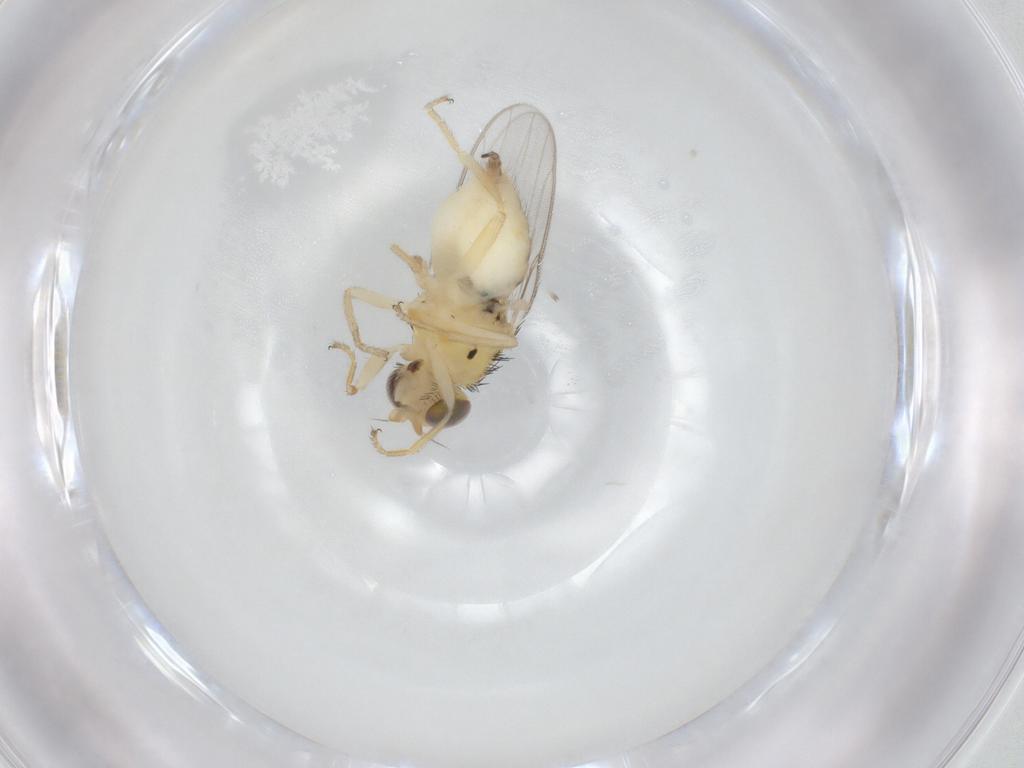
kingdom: Animalia
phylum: Arthropoda
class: Insecta
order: Diptera
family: Chloropidae
